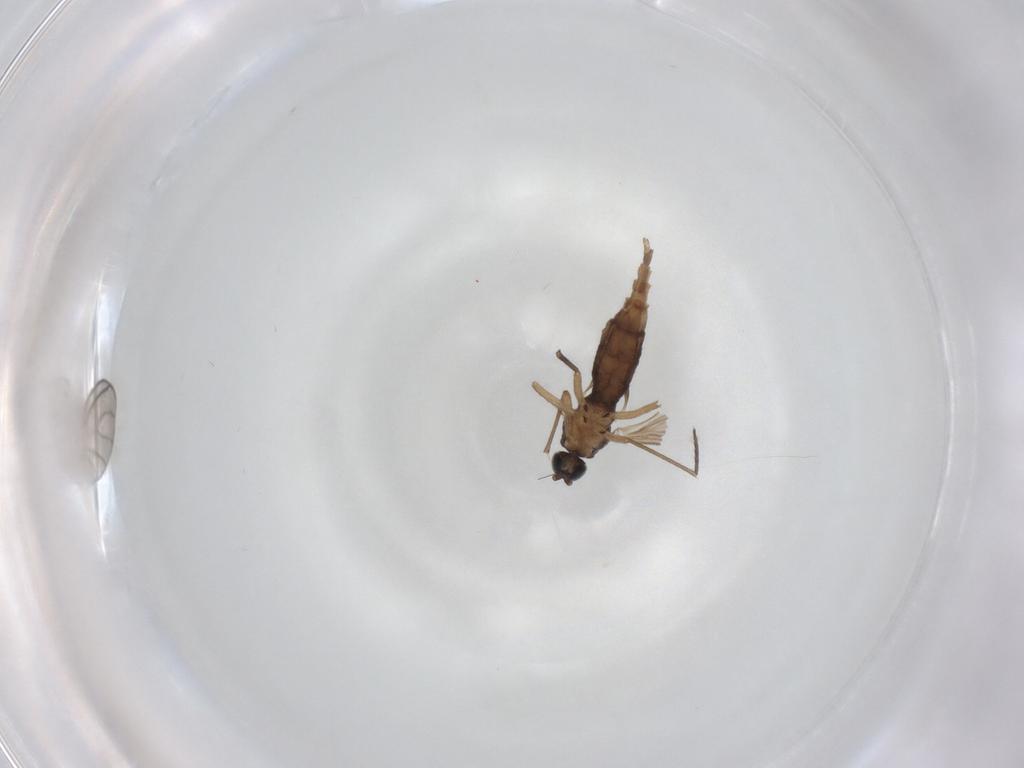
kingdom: Animalia
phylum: Arthropoda
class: Insecta
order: Diptera
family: Sciaridae
